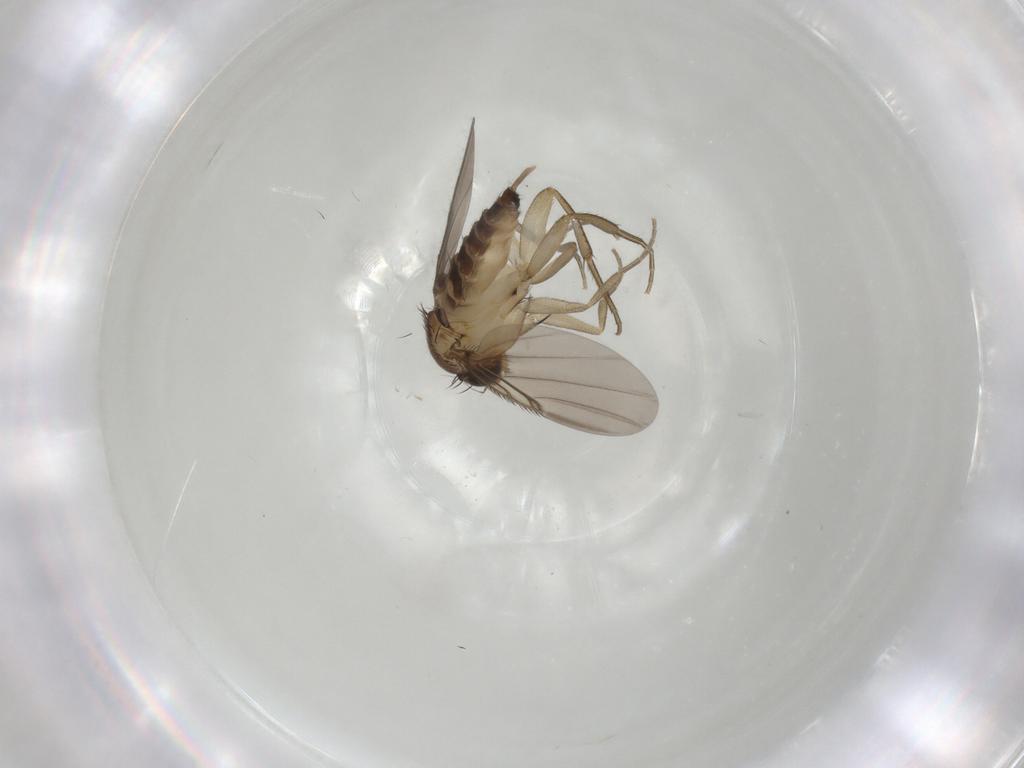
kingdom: Animalia
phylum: Arthropoda
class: Insecta
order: Diptera
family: Phoridae
